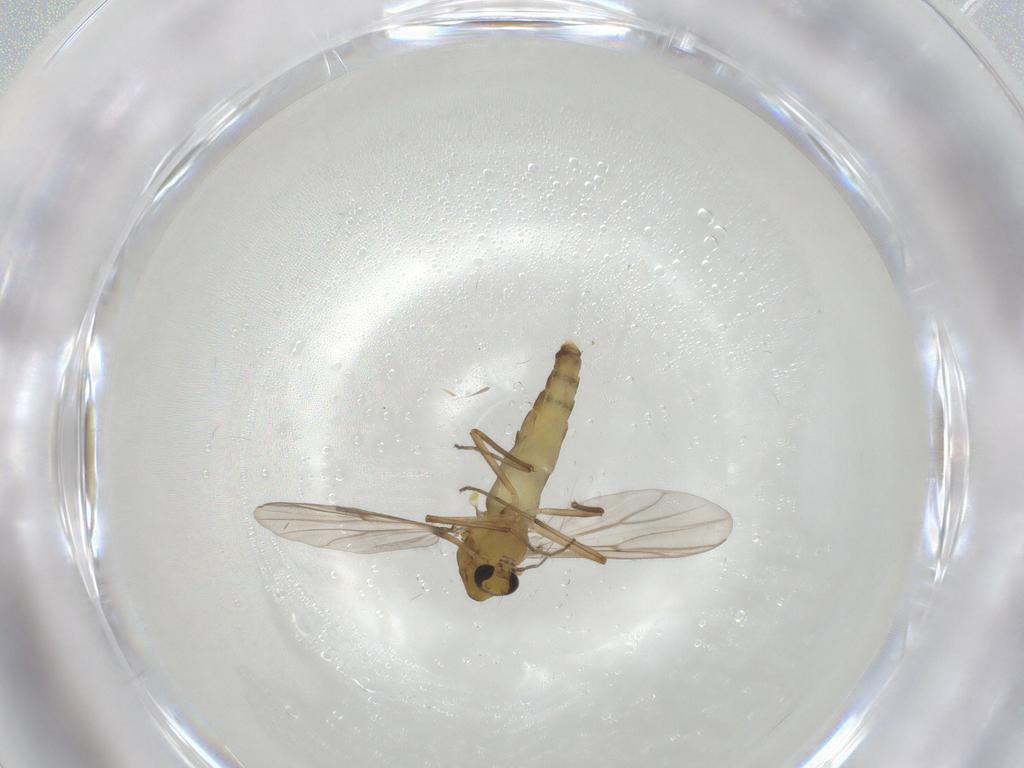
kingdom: Animalia
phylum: Arthropoda
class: Insecta
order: Diptera
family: Chironomidae
